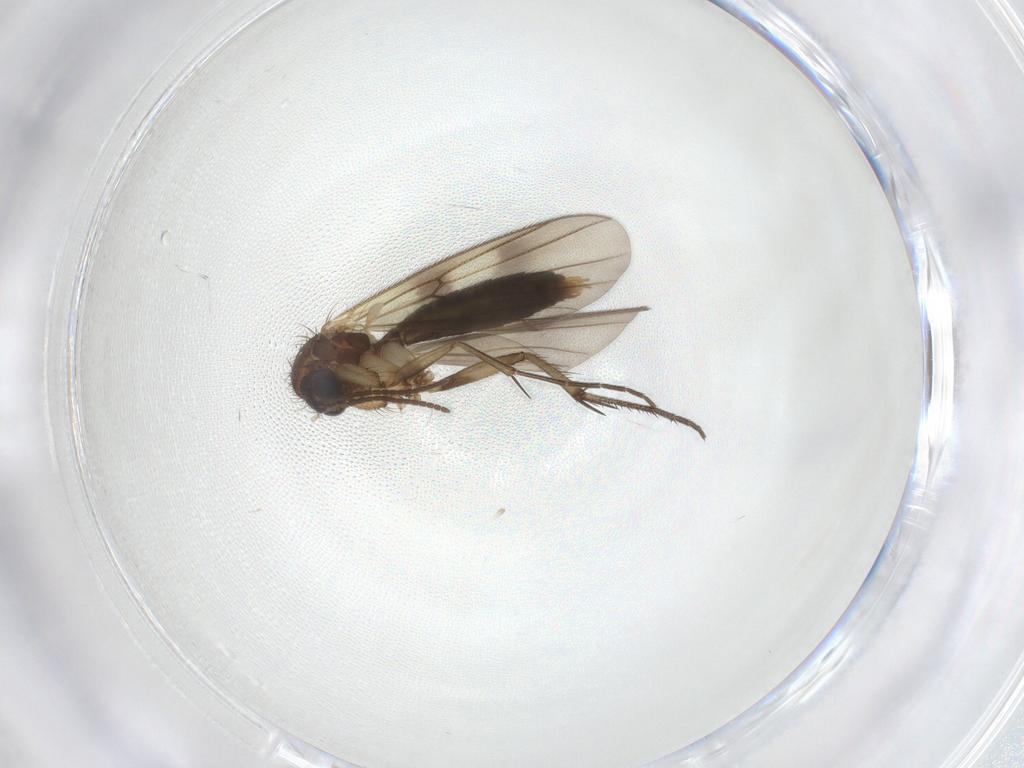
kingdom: Animalia
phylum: Arthropoda
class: Insecta
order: Diptera
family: Mycetophilidae
